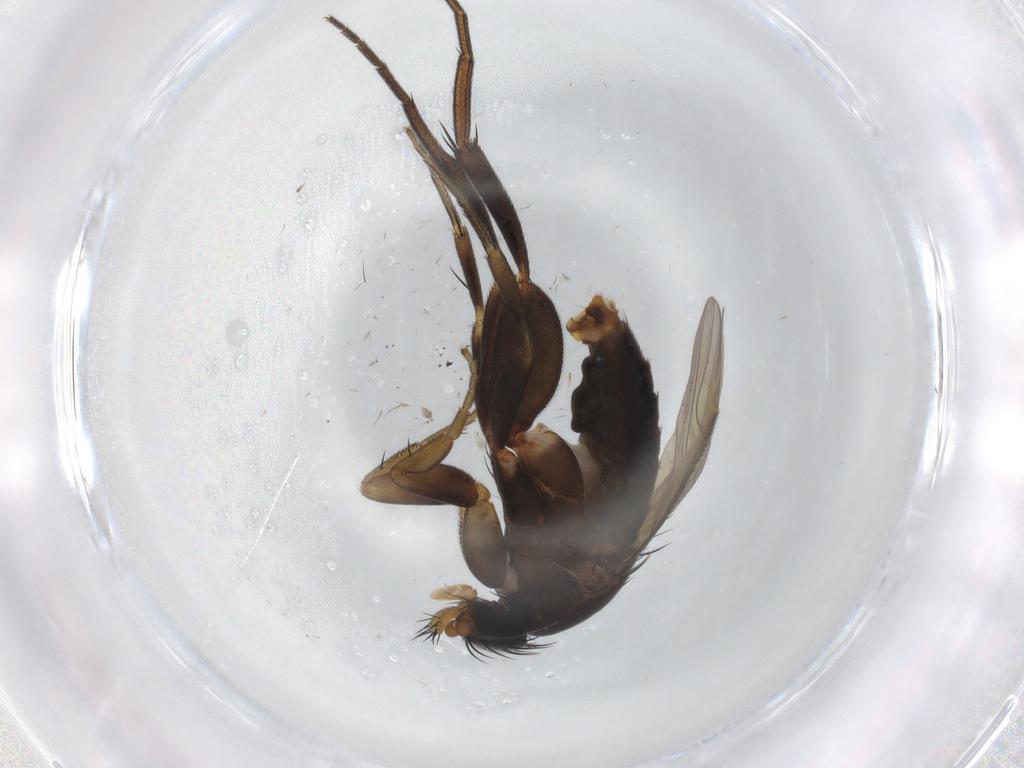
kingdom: Animalia
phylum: Arthropoda
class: Insecta
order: Diptera
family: Phoridae
